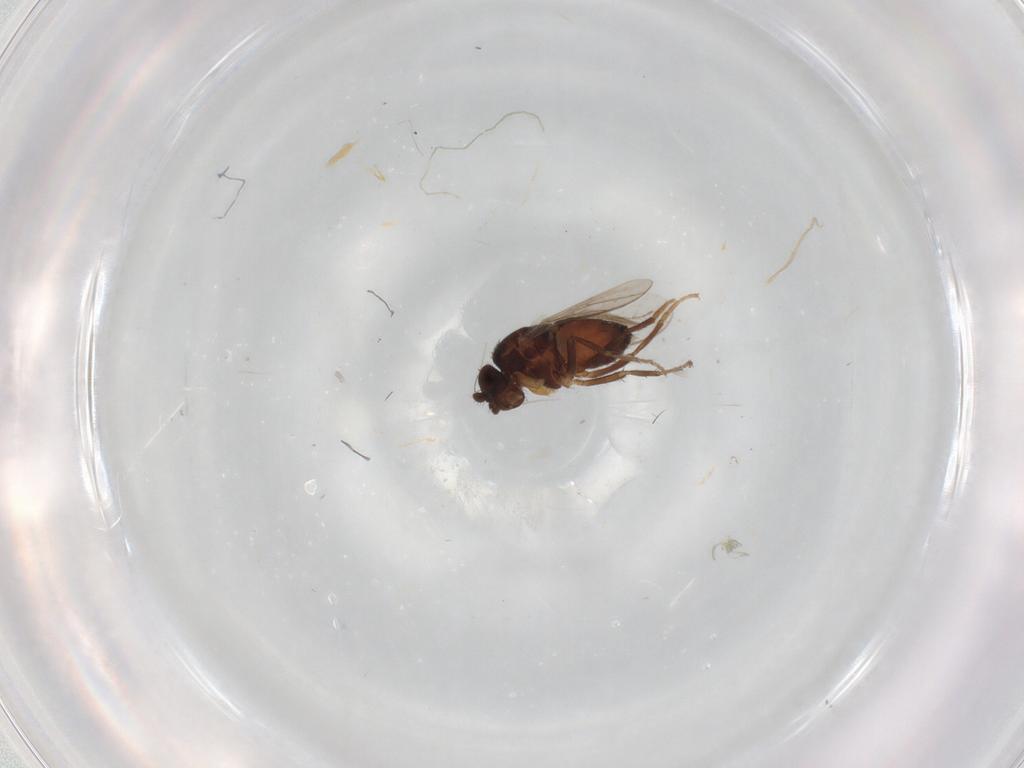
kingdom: Animalia
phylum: Arthropoda
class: Insecta
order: Diptera
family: Sphaeroceridae
